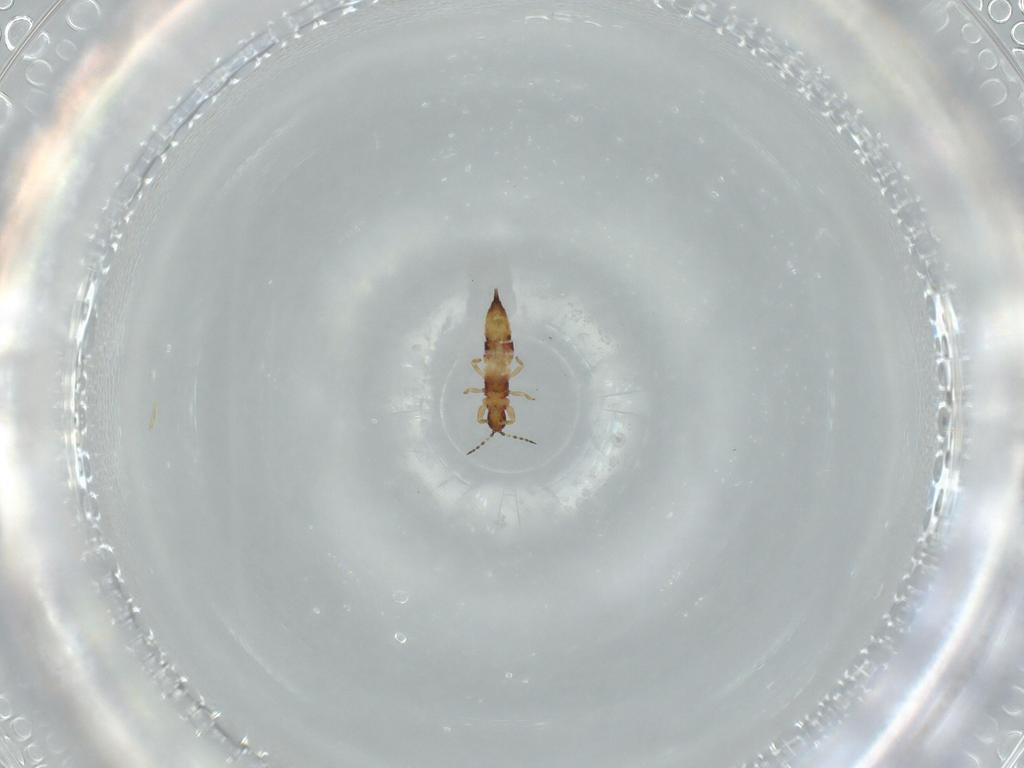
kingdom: Animalia
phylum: Arthropoda
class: Insecta
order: Thysanoptera
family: Phlaeothripidae
